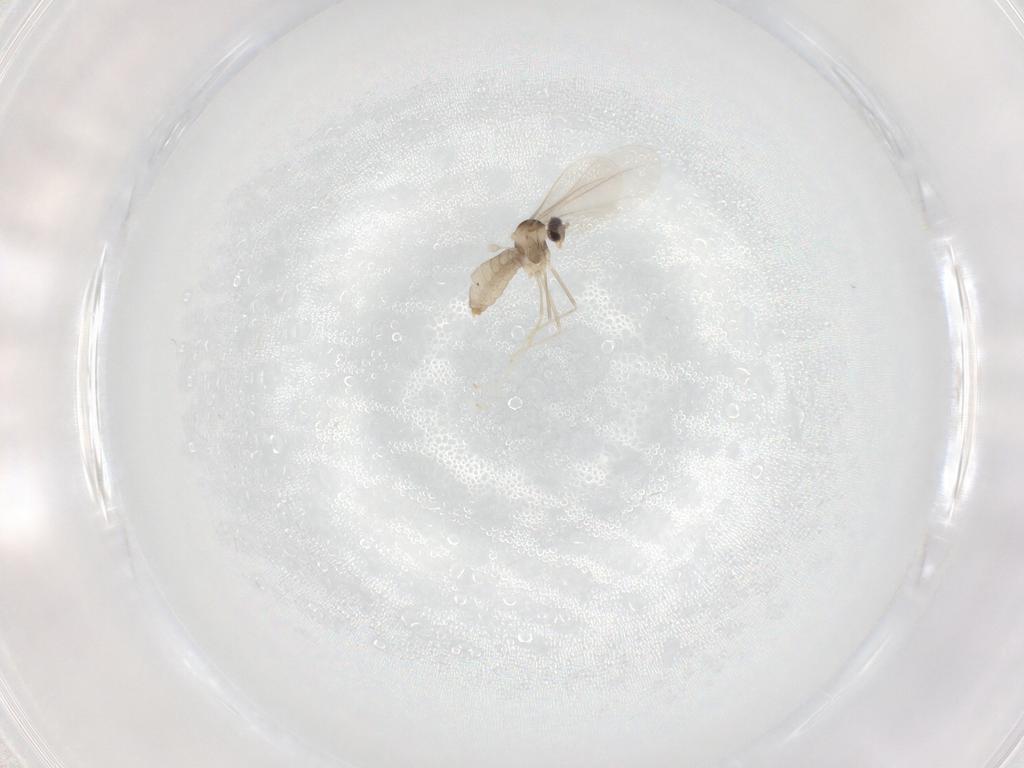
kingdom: Animalia
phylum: Arthropoda
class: Insecta
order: Diptera
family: Cecidomyiidae
